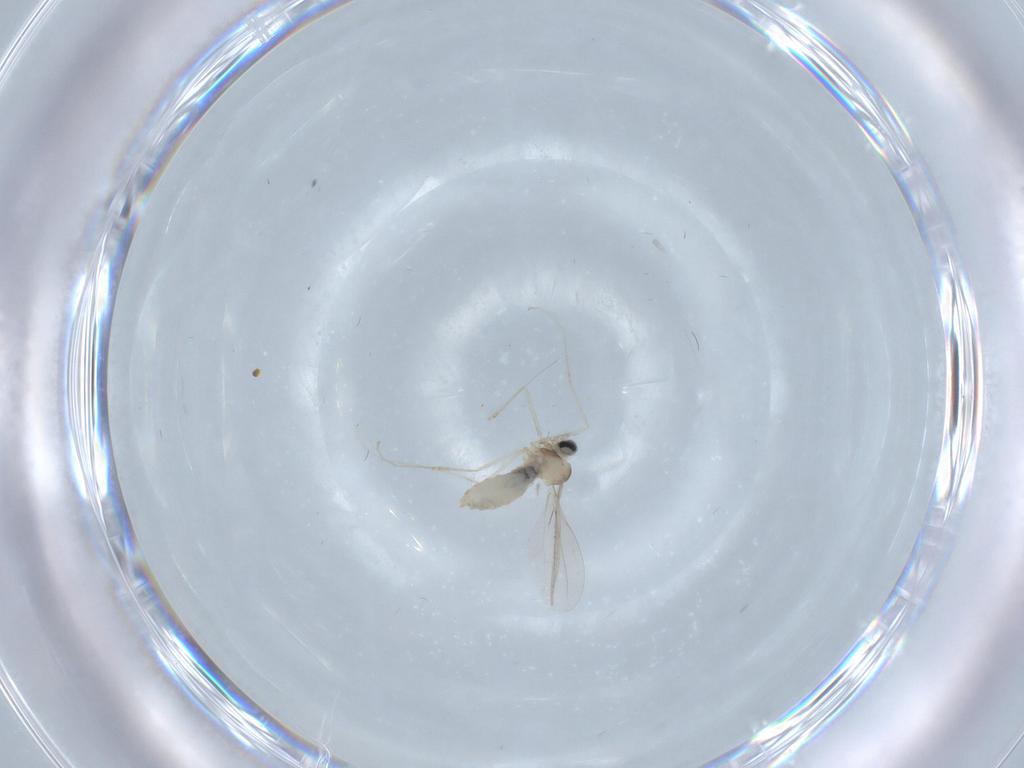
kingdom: Animalia
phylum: Arthropoda
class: Insecta
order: Diptera
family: Cecidomyiidae
